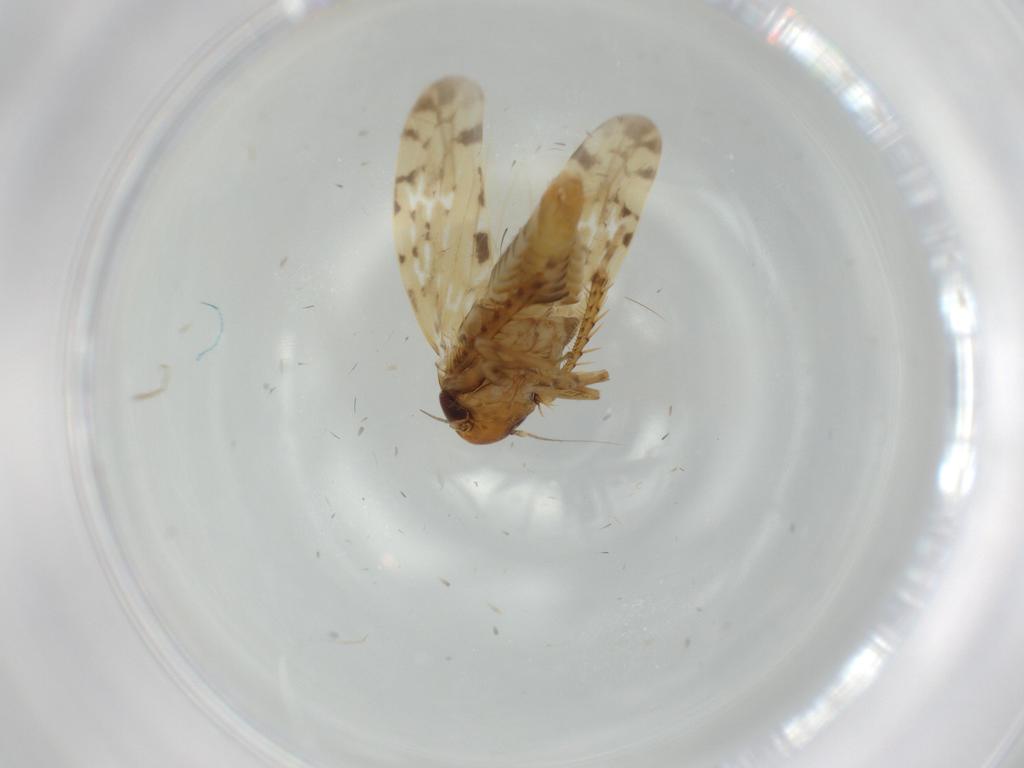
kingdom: Animalia
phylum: Arthropoda
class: Insecta
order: Hemiptera
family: Cicadellidae
